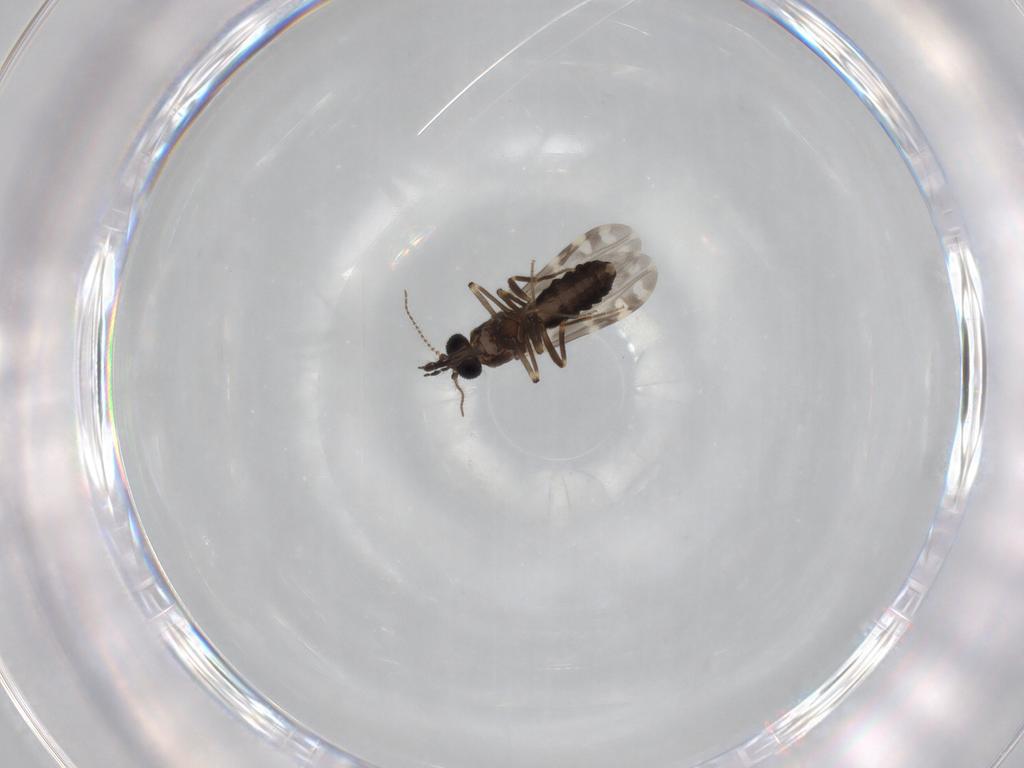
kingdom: Animalia
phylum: Arthropoda
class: Insecta
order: Diptera
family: Ceratopogonidae
